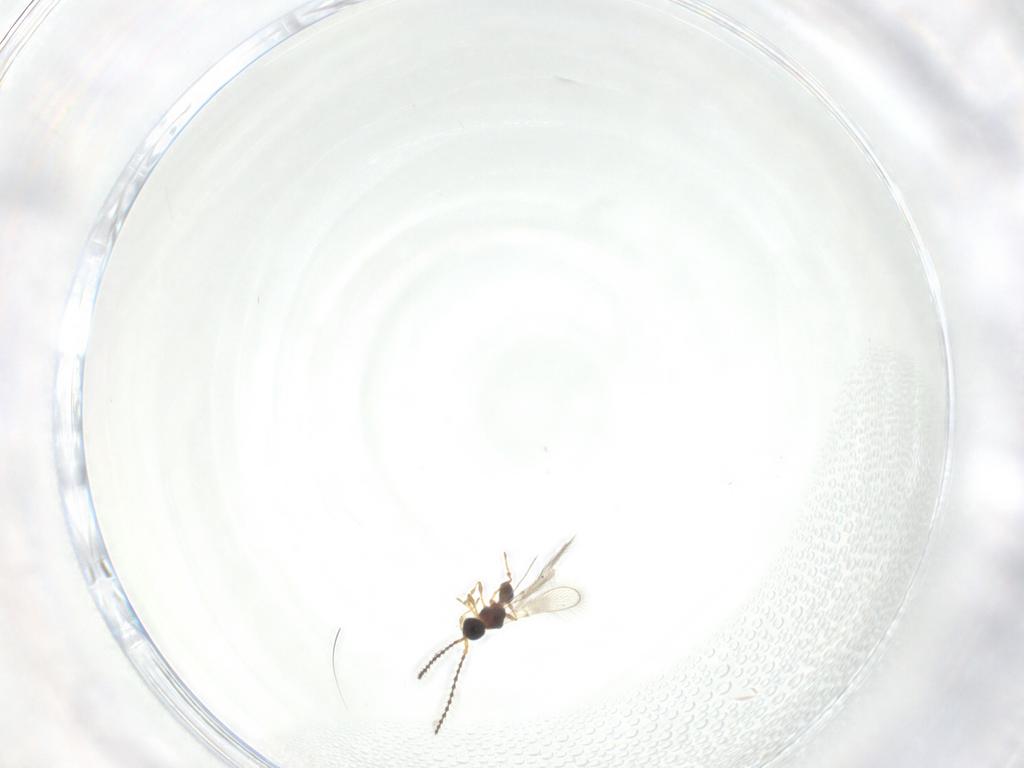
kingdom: Animalia
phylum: Arthropoda
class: Insecta
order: Hymenoptera
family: Diapriidae
